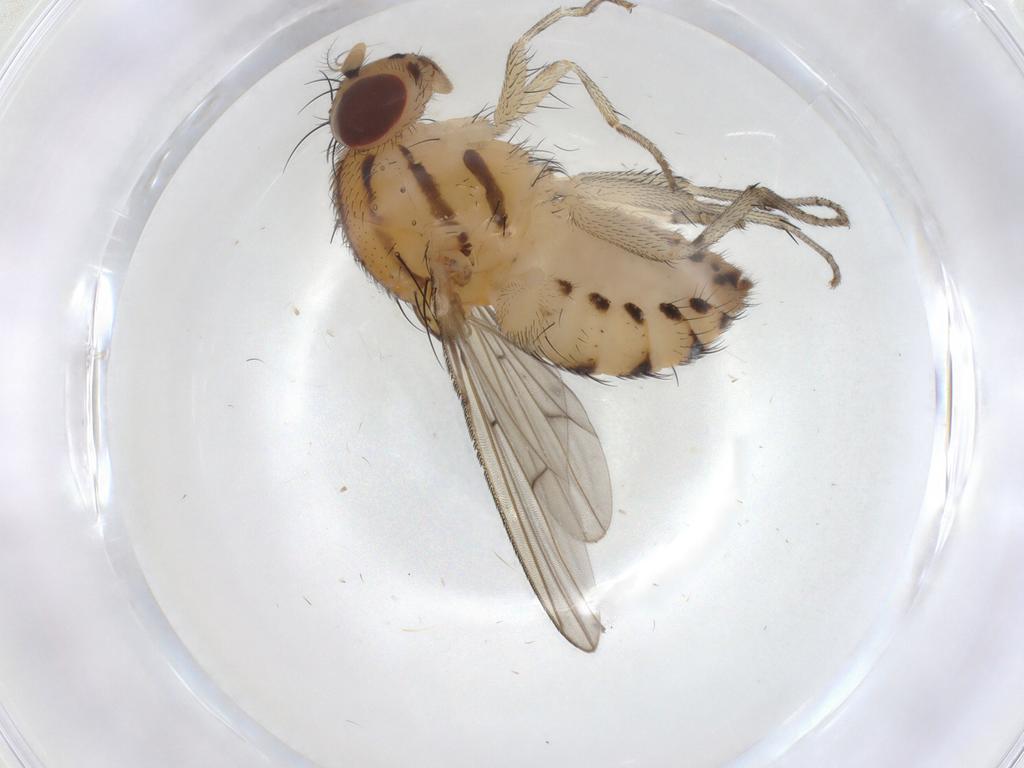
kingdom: Animalia
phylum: Arthropoda
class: Insecta
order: Diptera
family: Lauxaniidae
